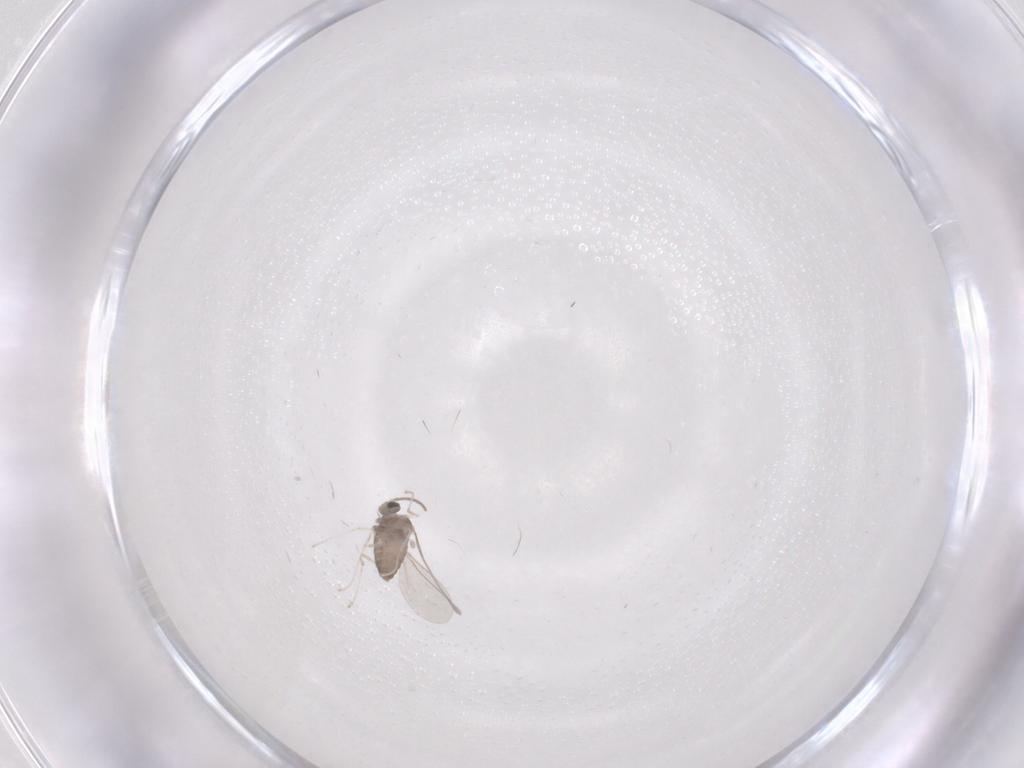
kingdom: Animalia
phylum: Arthropoda
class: Insecta
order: Diptera
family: Cecidomyiidae
